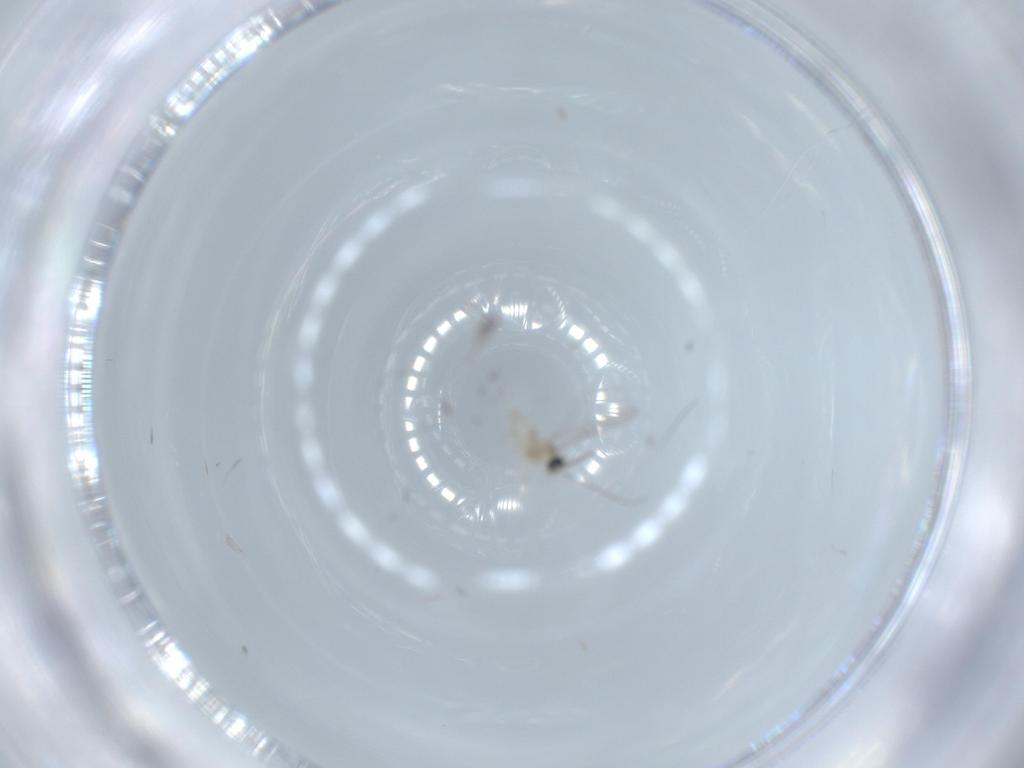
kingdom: Animalia
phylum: Arthropoda
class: Insecta
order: Diptera
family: Cecidomyiidae
